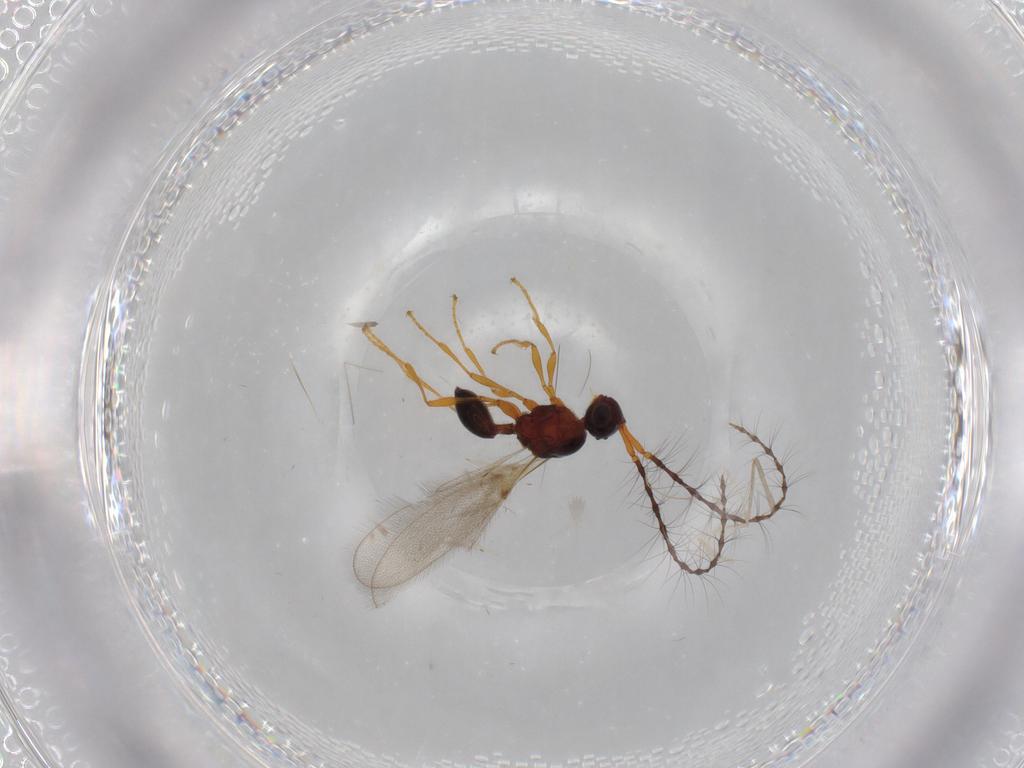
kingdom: Animalia
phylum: Arthropoda
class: Insecta
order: Hymenoptera
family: Diapriidae
